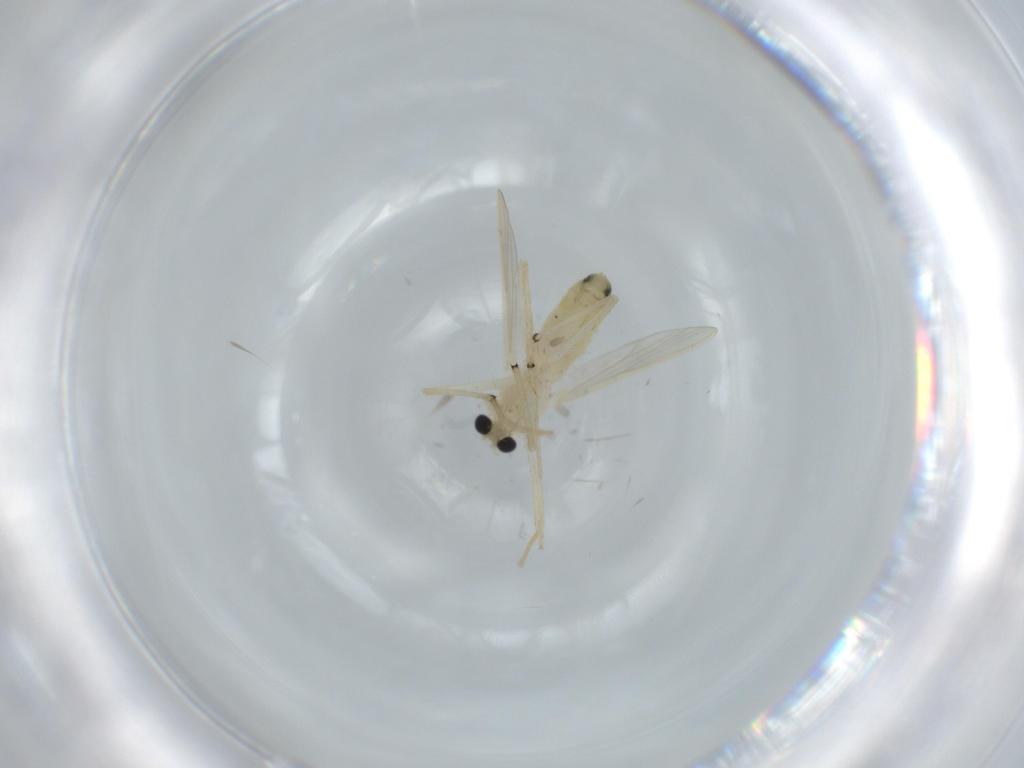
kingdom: Animalia
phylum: Arthropoda
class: Insecta
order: Diptera
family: Chironomidae
